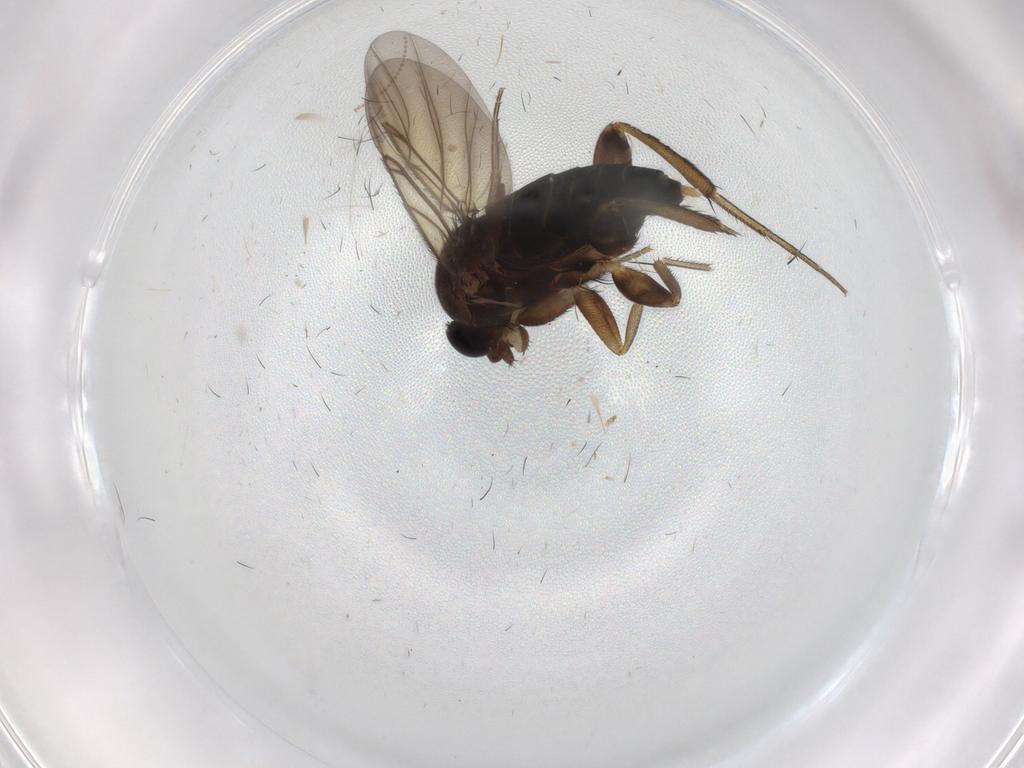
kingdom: Animalia
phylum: Arthropoda
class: Insecta
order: Diptera
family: Phoridae
